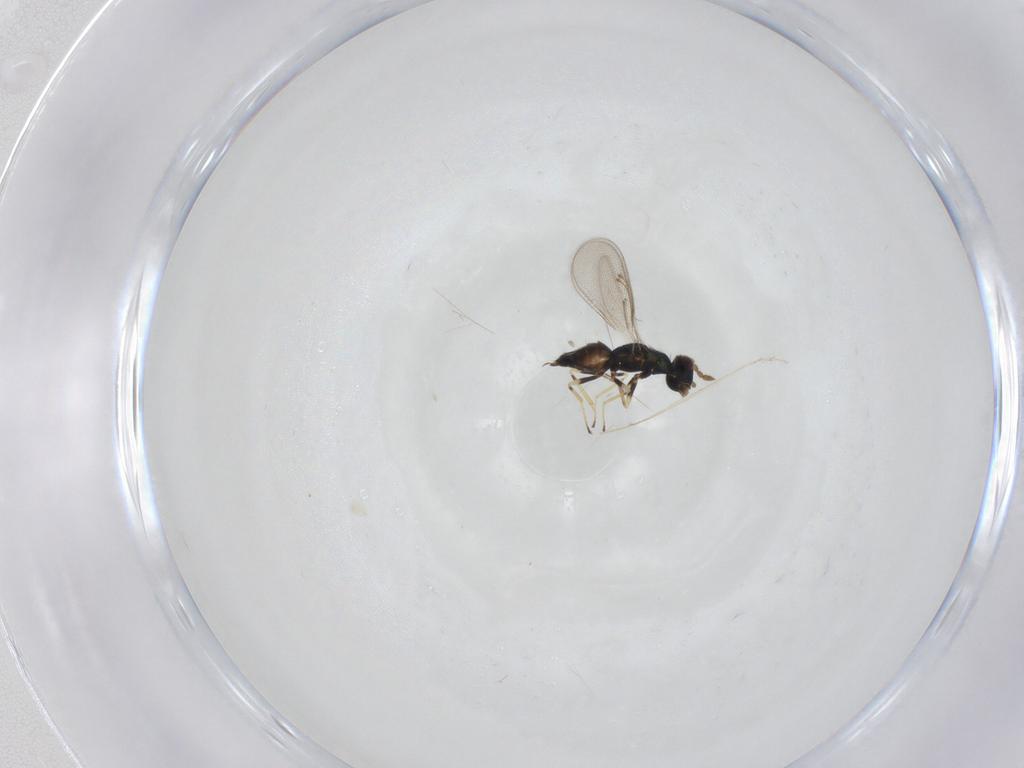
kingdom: Animalia
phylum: Arthropoda
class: Insecta
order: Hymenoptera
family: Eulophidae
